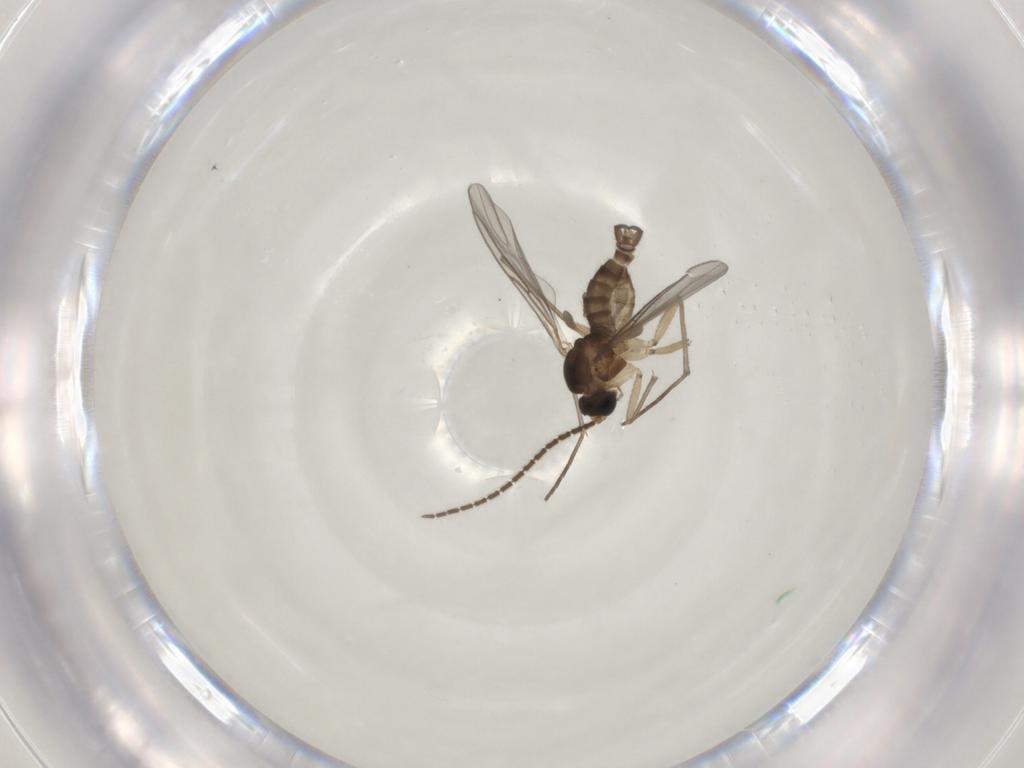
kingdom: Animalia
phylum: Arthropoda
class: Insecta
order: Diptera
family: Sciaridae
